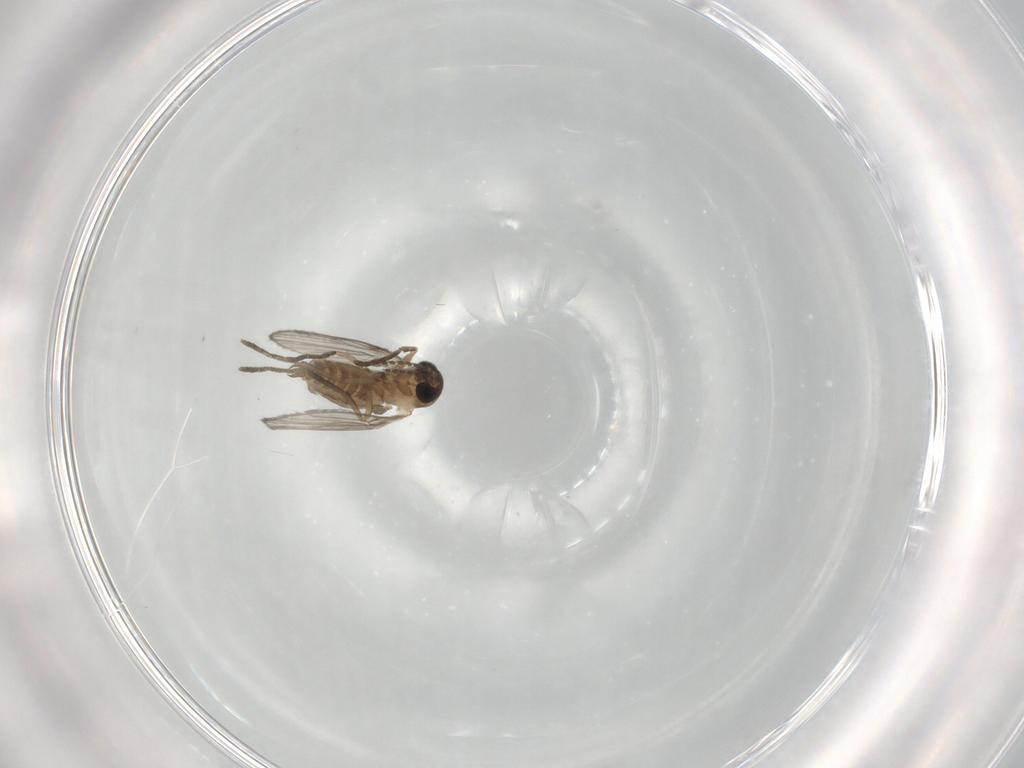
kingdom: Animalia
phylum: Arthropoda
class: Insecta
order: Diptera
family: Psychodidae
